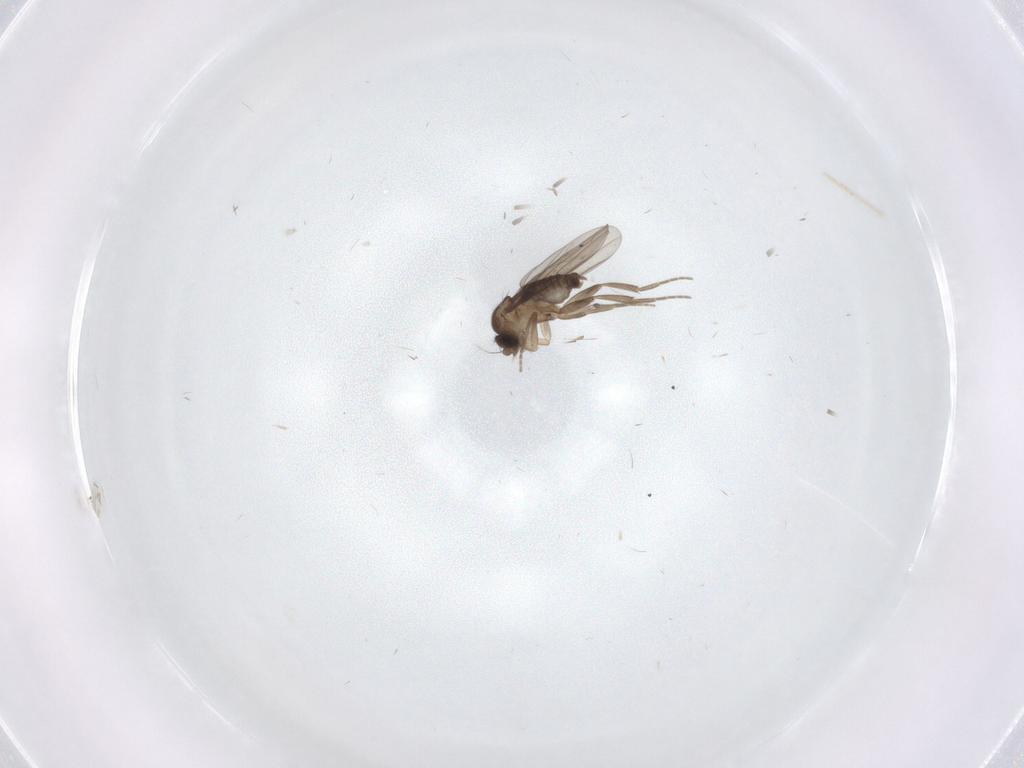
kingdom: Animalia
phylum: Arthropoda
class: Insecta
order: Diptera
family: Phoridae
